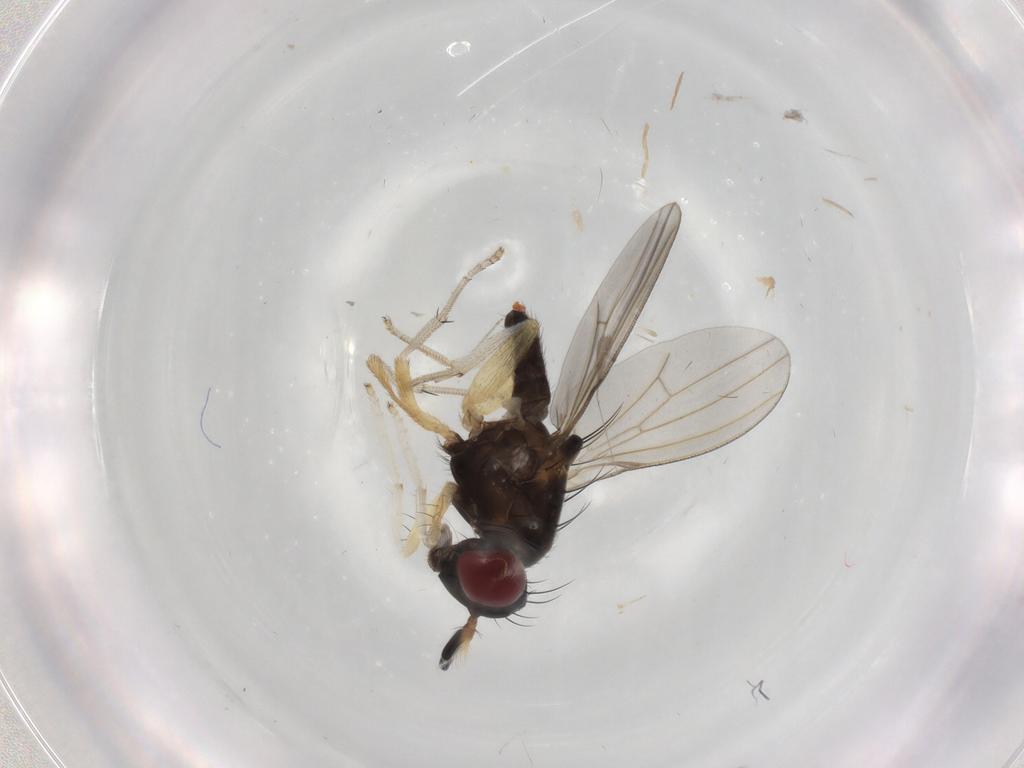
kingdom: Animalia
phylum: Arthropoda
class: Insecta
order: Diptera
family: Lauxaniidae
